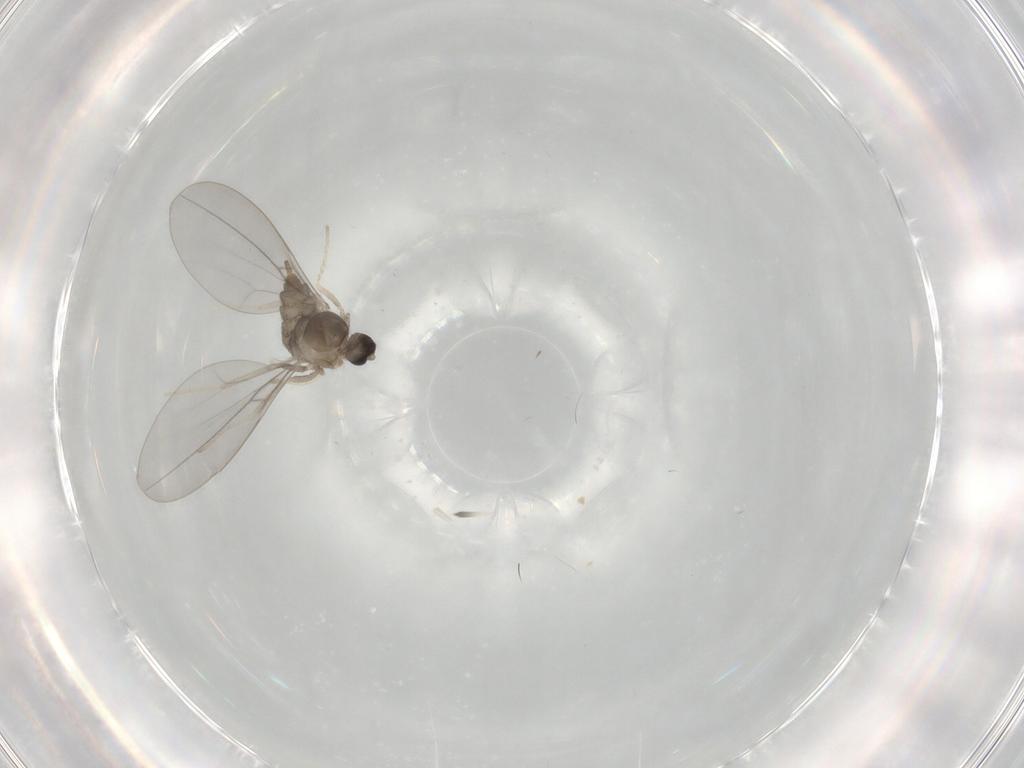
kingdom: Animalia
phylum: Arthropoda
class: Insecta
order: Diptera
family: Cecidomyiidae
